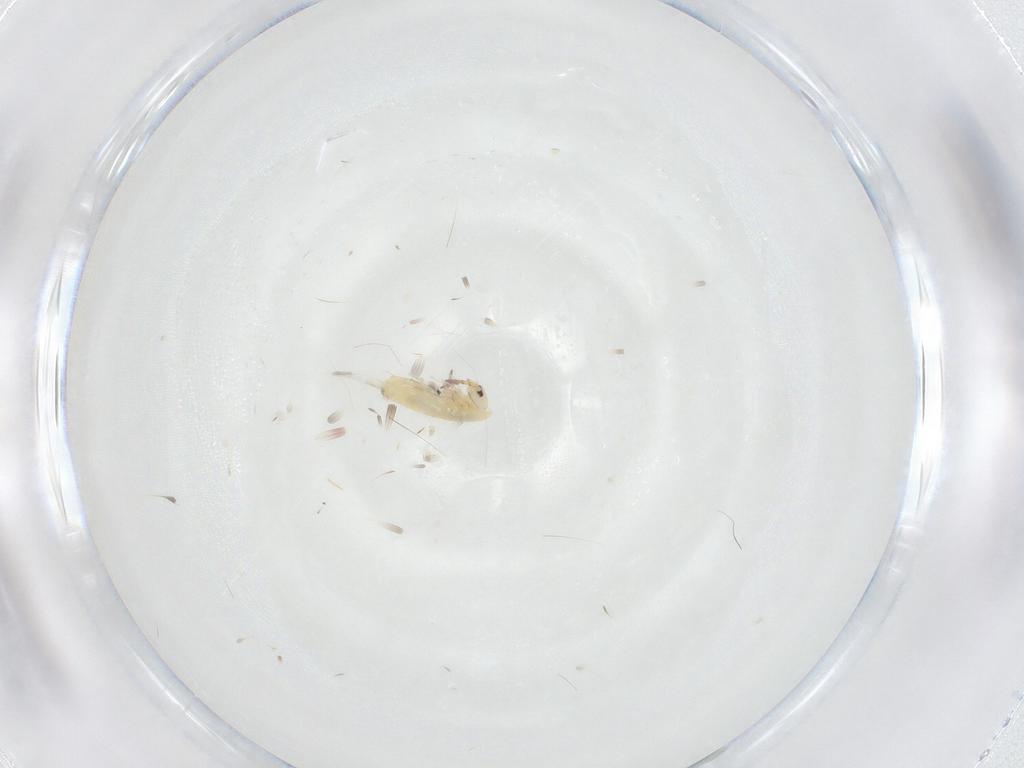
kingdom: Animalia
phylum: Arthropoda
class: Collembola
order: Entomobryomorpha
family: Entomobryidae
